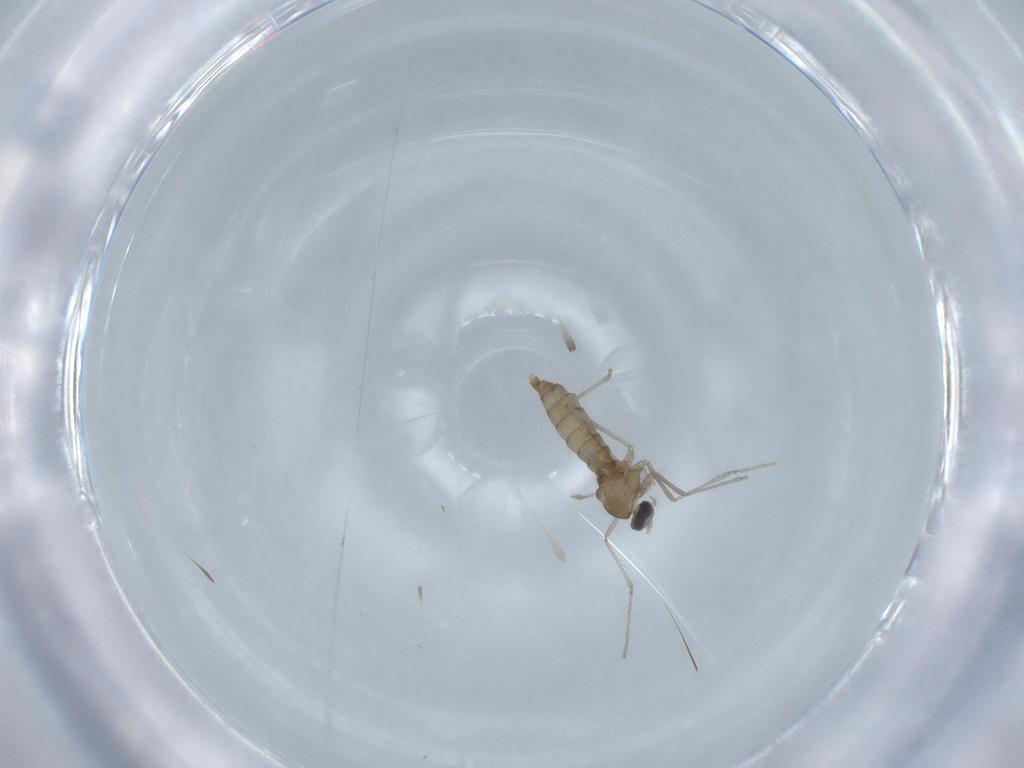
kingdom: Animalia
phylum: Arthropoda
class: Insecta
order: Diptera
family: Cecidomyiidae
